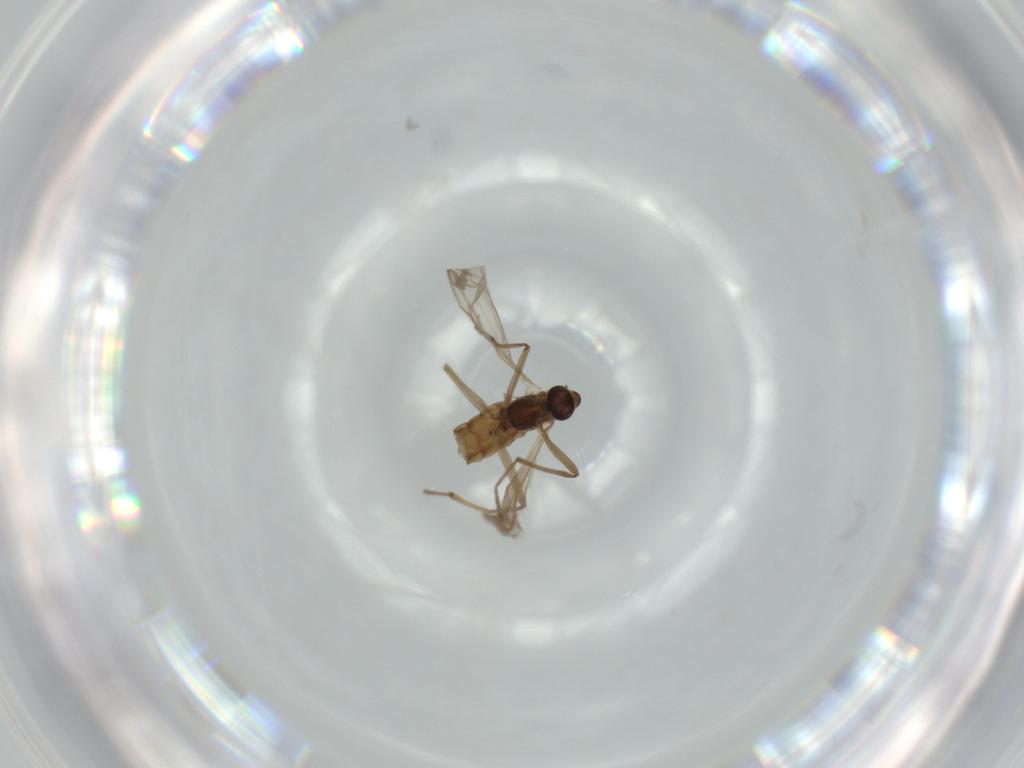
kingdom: Animalia
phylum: Arthropoda
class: Insecta
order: Diptera
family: Chironomidae
